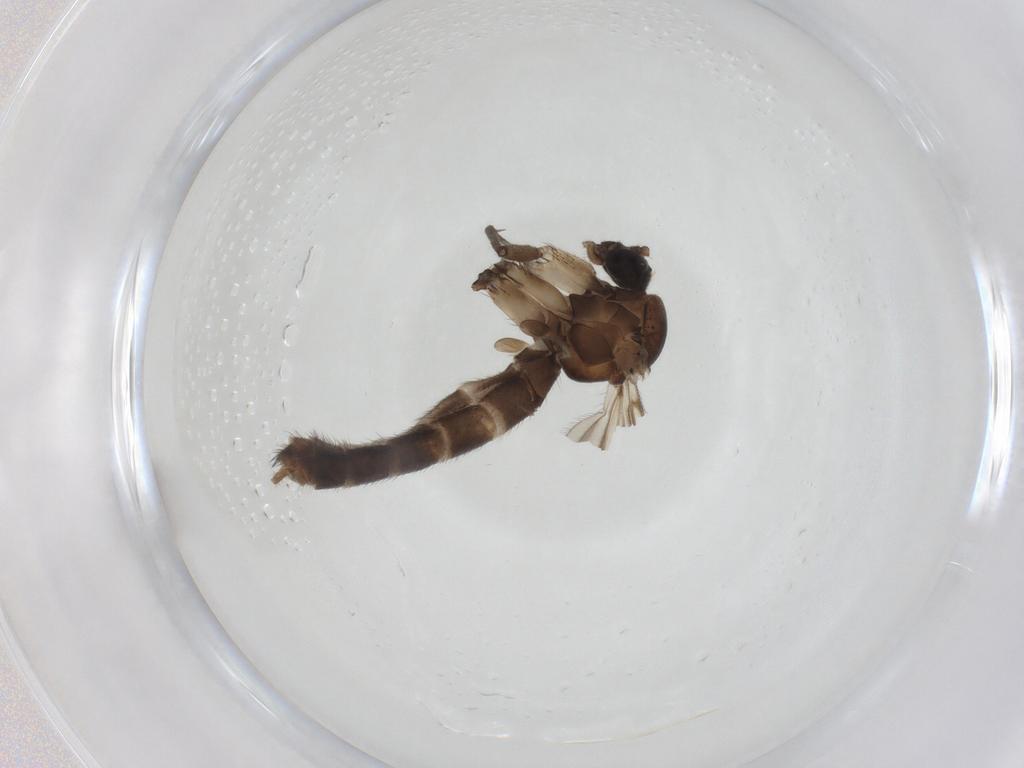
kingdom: Animalia
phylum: Arthropoda
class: Insecta
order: Diptera
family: Mycetophilidae
